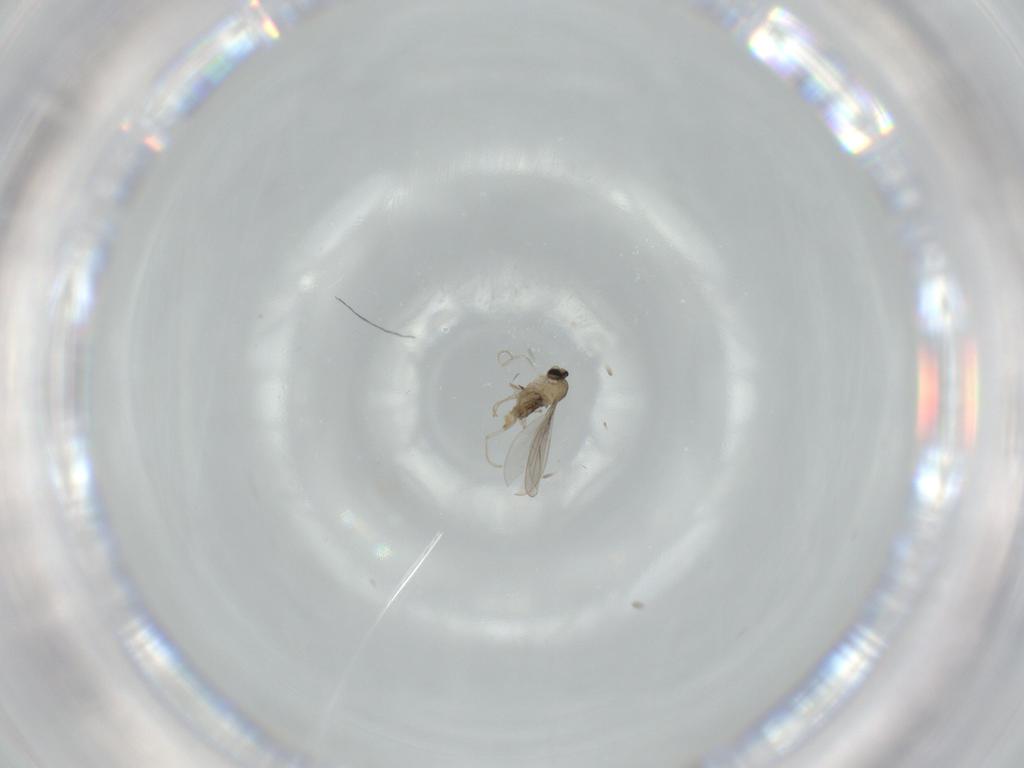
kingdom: Animalia
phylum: Arthropoda
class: Insecta
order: Diptera
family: Cecidomyiidae
